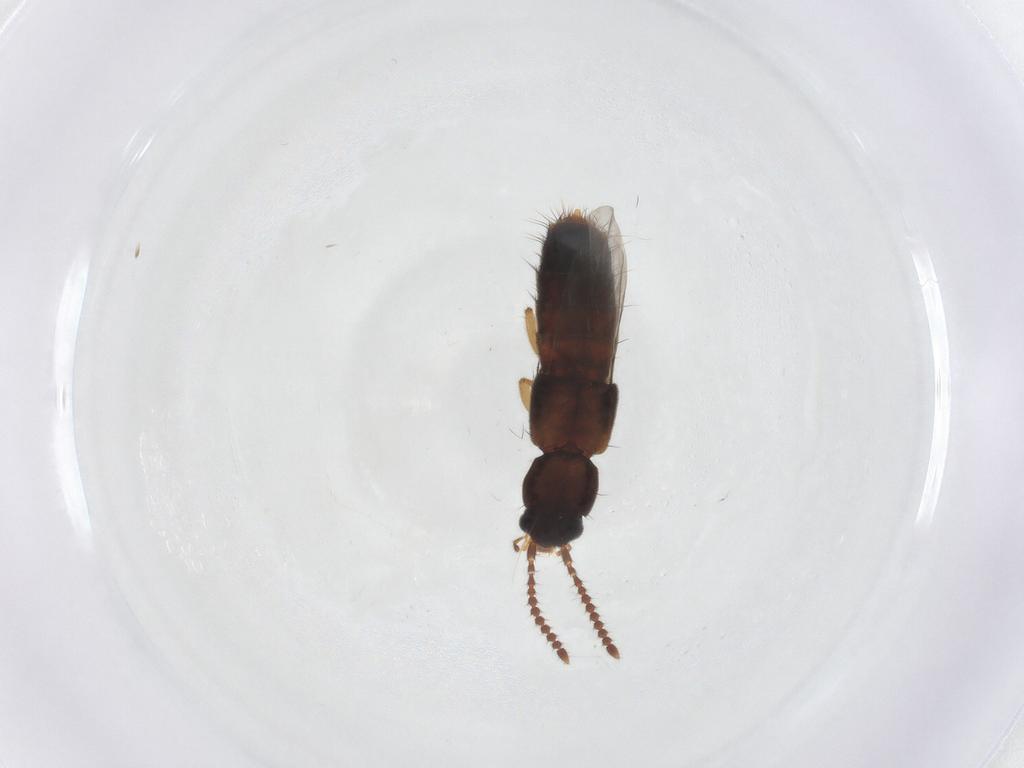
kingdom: Animalia
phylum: Arthropoda
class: Insecta
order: Coleoptera
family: Staphylinidae
